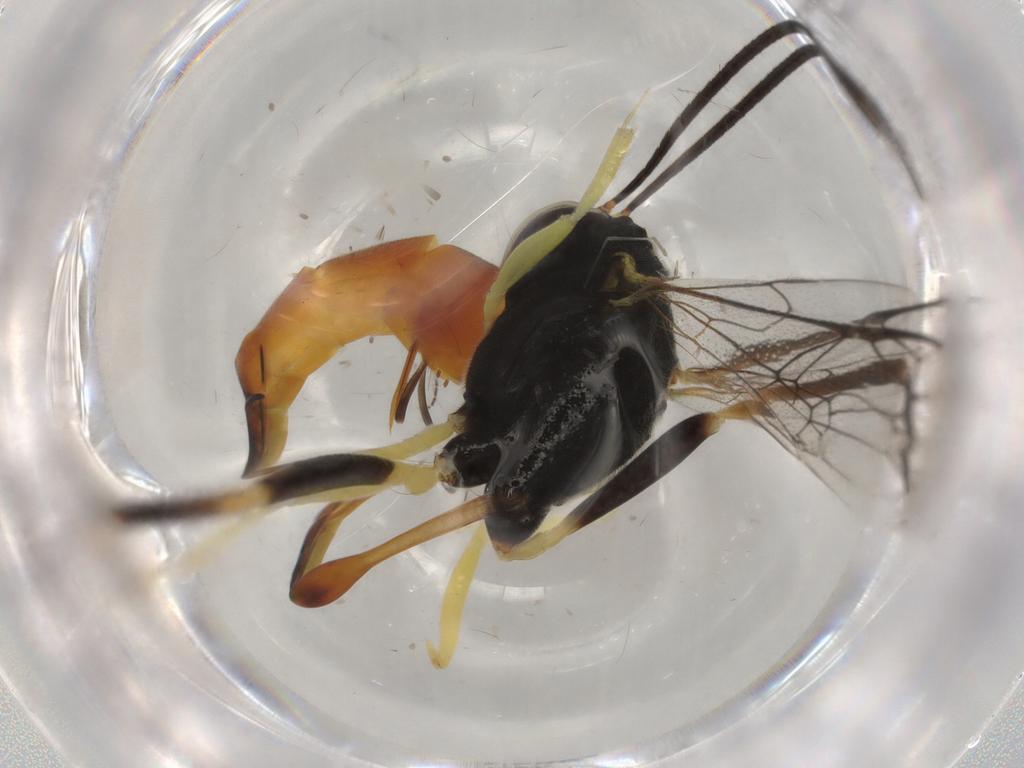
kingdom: Animalia
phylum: Arthropoda
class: Insecta
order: Hymenoptera
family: Ichneumonidae
